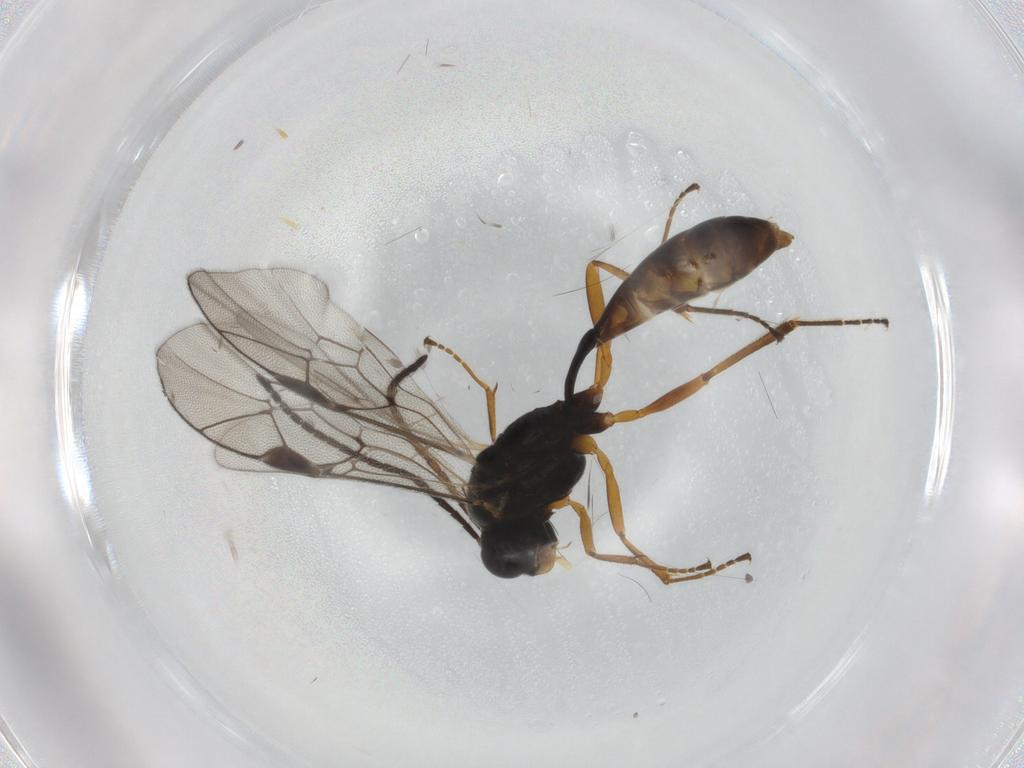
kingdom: Animalia
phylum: Arthropoda
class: Insecta
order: Hymenoptera
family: Ichneumonidae
